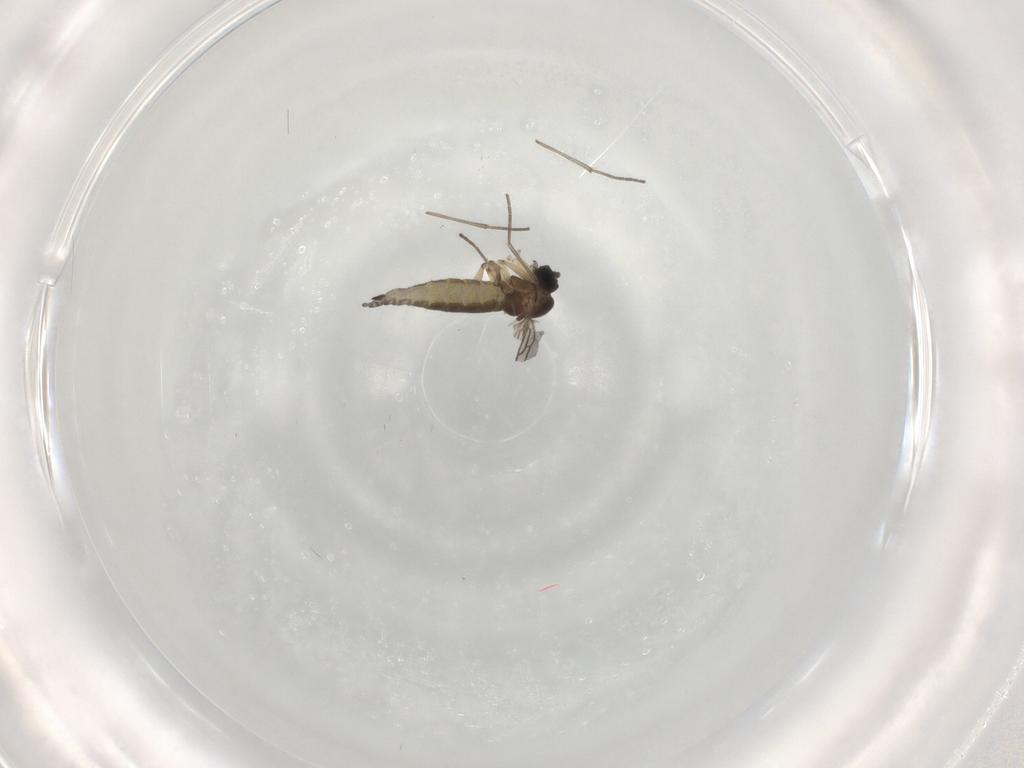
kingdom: Animalia
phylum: Arthropoda
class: Insecta
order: Diptera
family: Sciaridae
